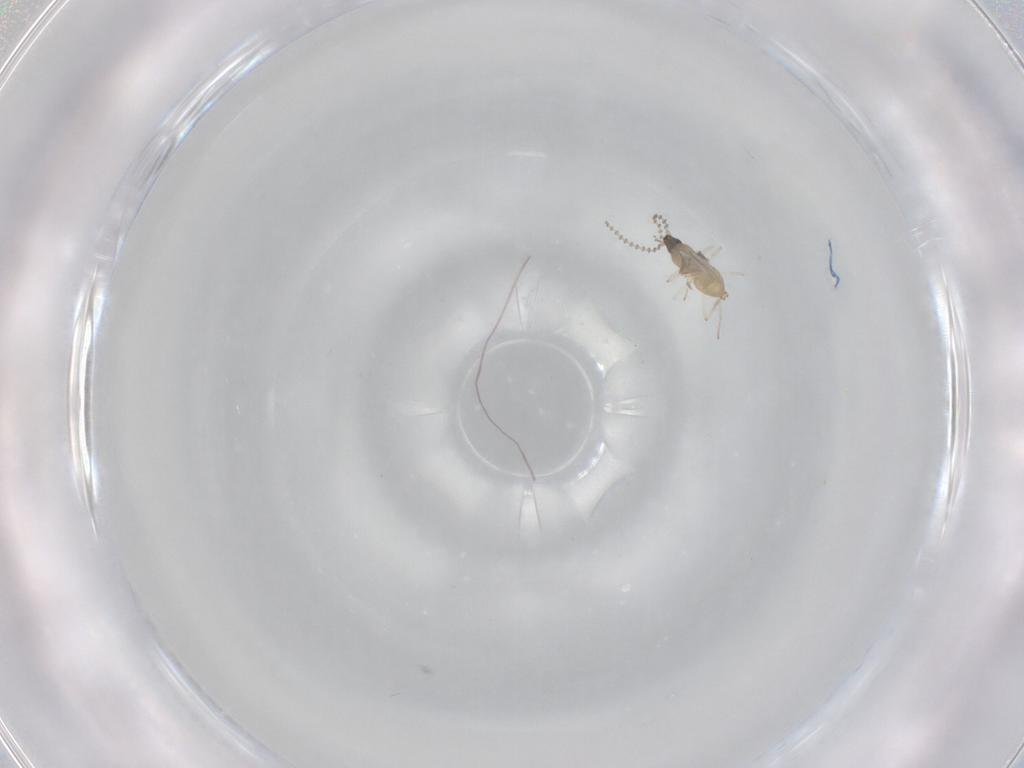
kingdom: Animalia
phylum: Arthropoda
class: Insecta
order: Diptera
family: Cecidomyiidae
